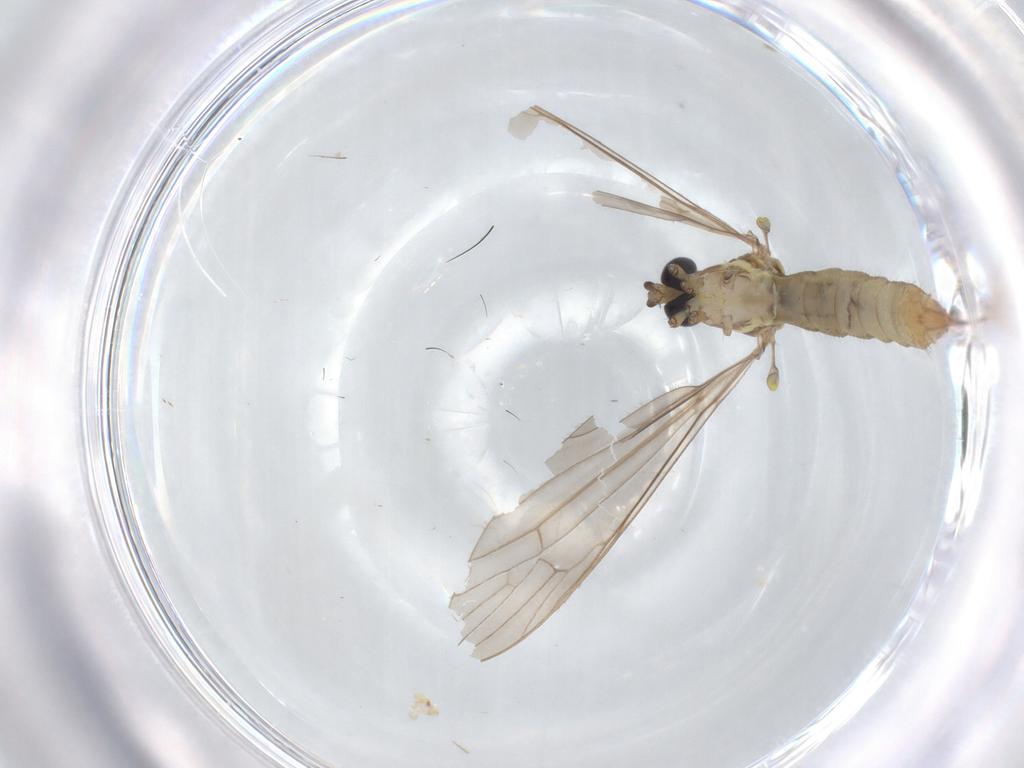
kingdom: Animalia
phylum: Arthropoda
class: Insecta
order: Diptera
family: Limoniidae
